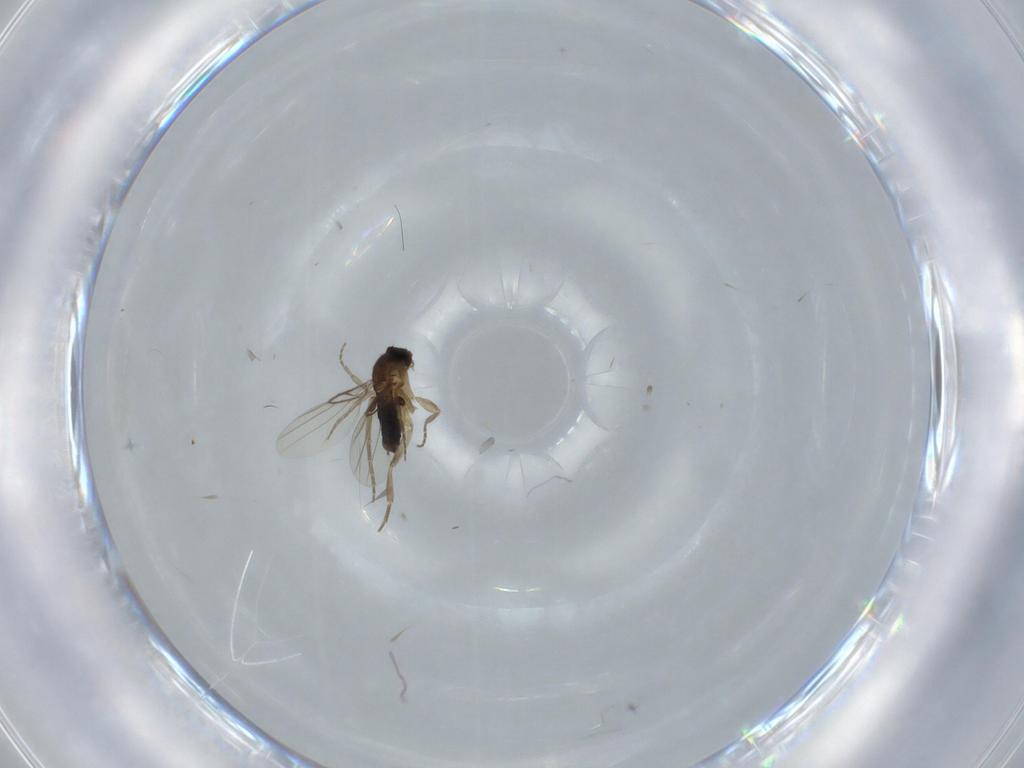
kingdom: Animalia
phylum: Arthropoda
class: Insecta
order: Diptera
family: Phoridae
